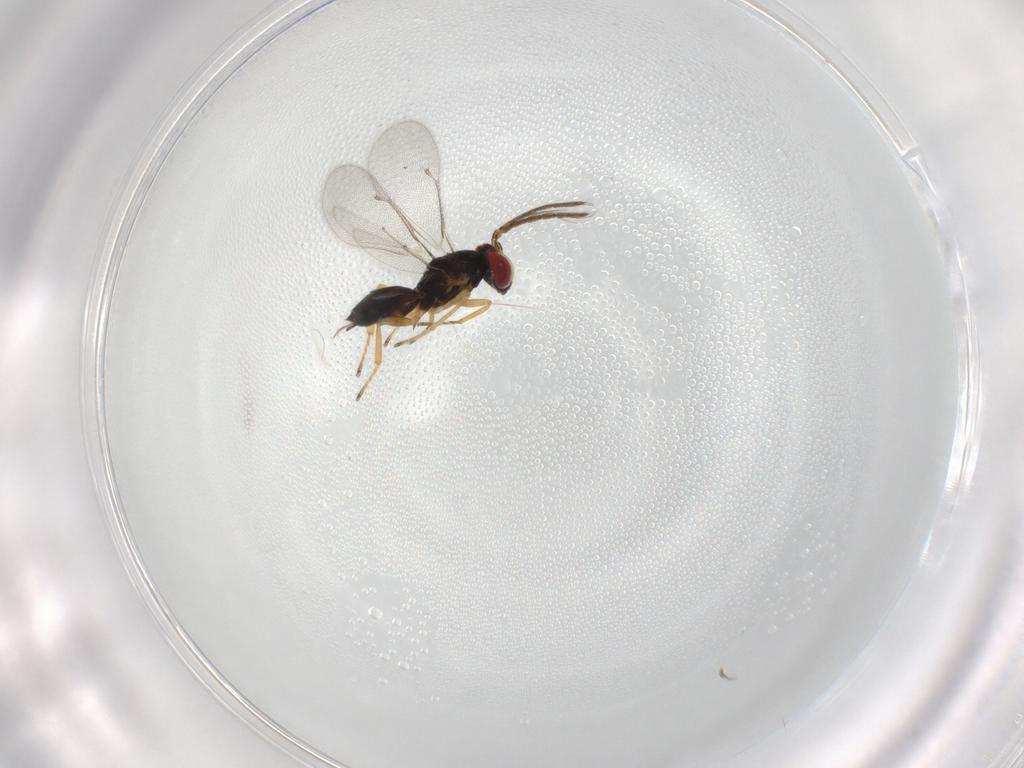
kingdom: Animalia
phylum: Arthropoda
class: Insecta
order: Hymenoptera
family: Eulophidae
